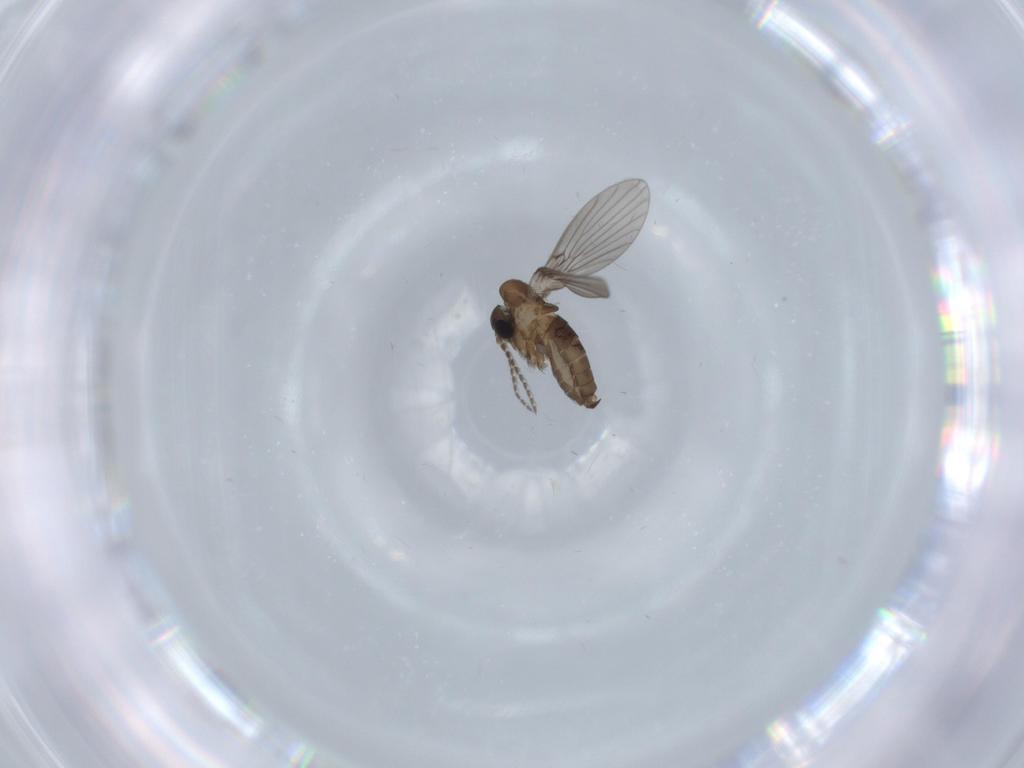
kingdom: Animalia
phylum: Arthropoda
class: Insecta
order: Diptera
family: Psychodidae
